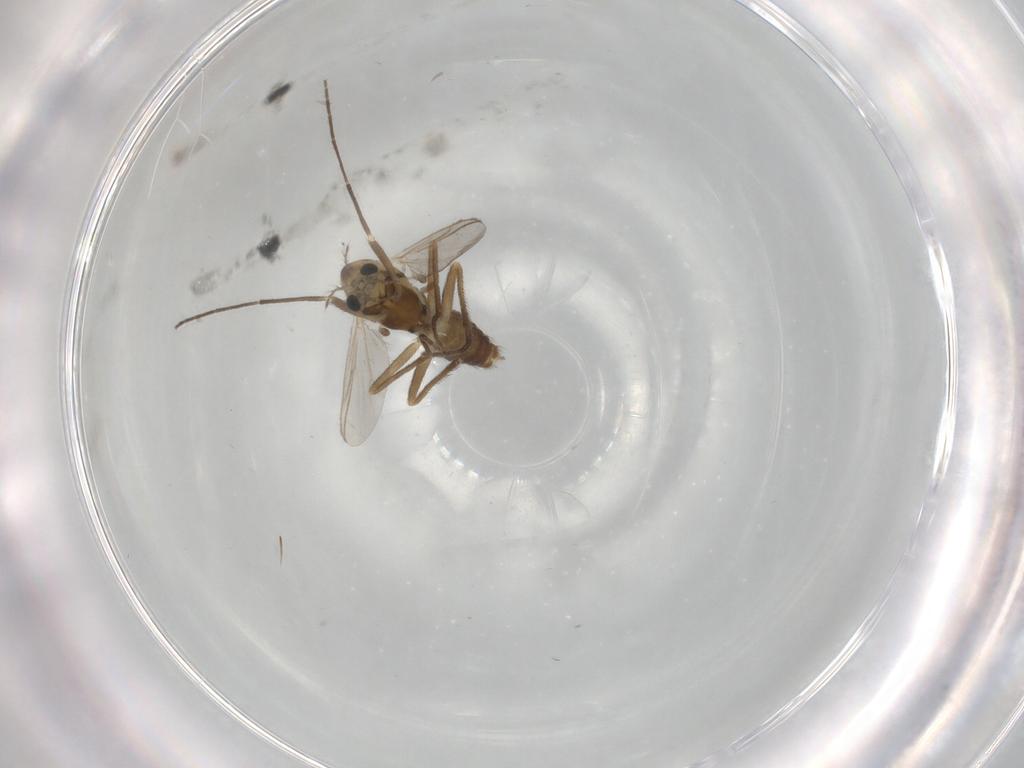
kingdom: Animalia
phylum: Arthropoda
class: Insecta
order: Diptera
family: Chironomidae
